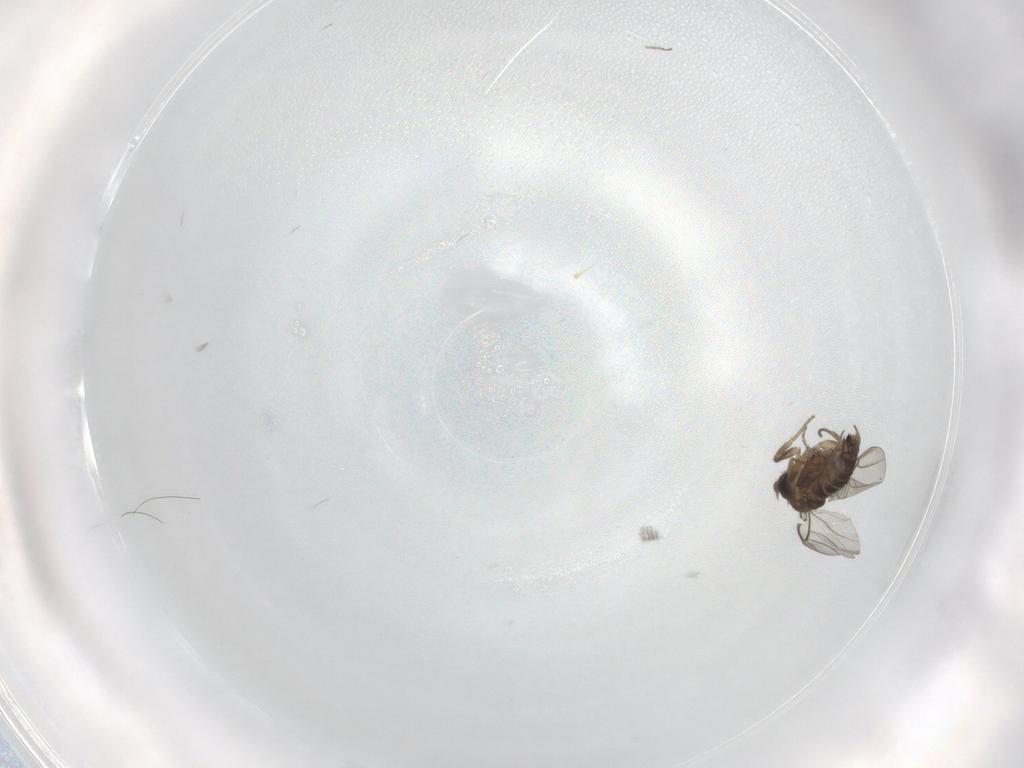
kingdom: Animalia
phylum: Arthropoda
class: Insecta
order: Diptera
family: Phoridae
